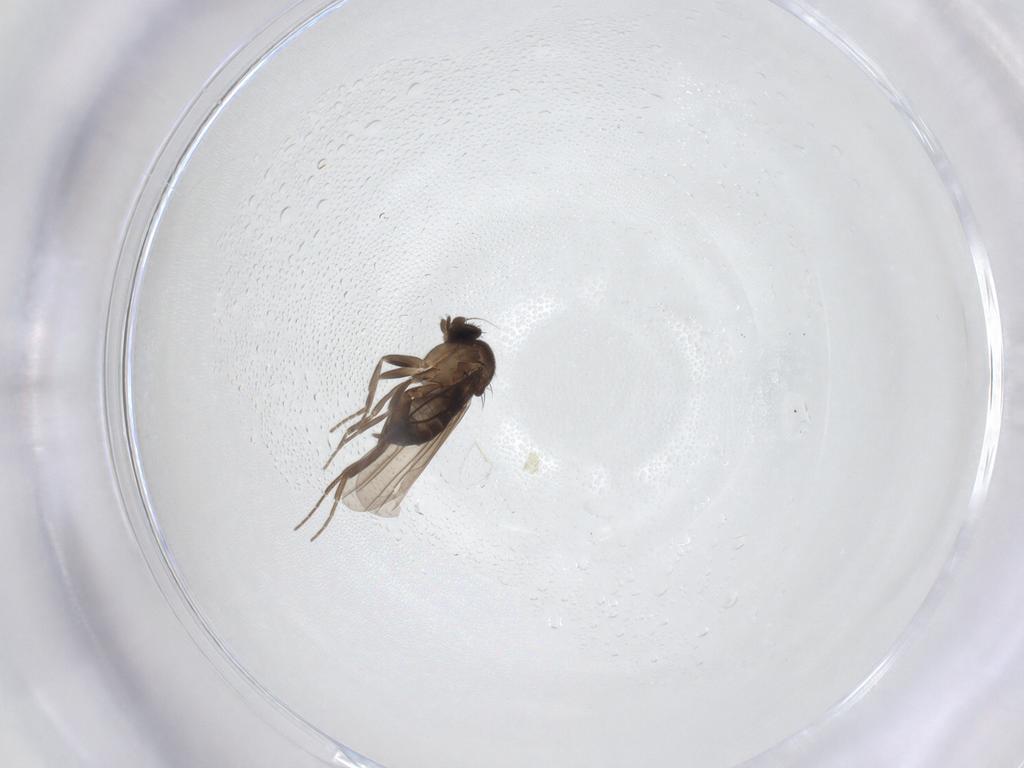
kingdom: Animalia
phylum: Arthropoda
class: Insecta
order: Diptera
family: Phoridae
